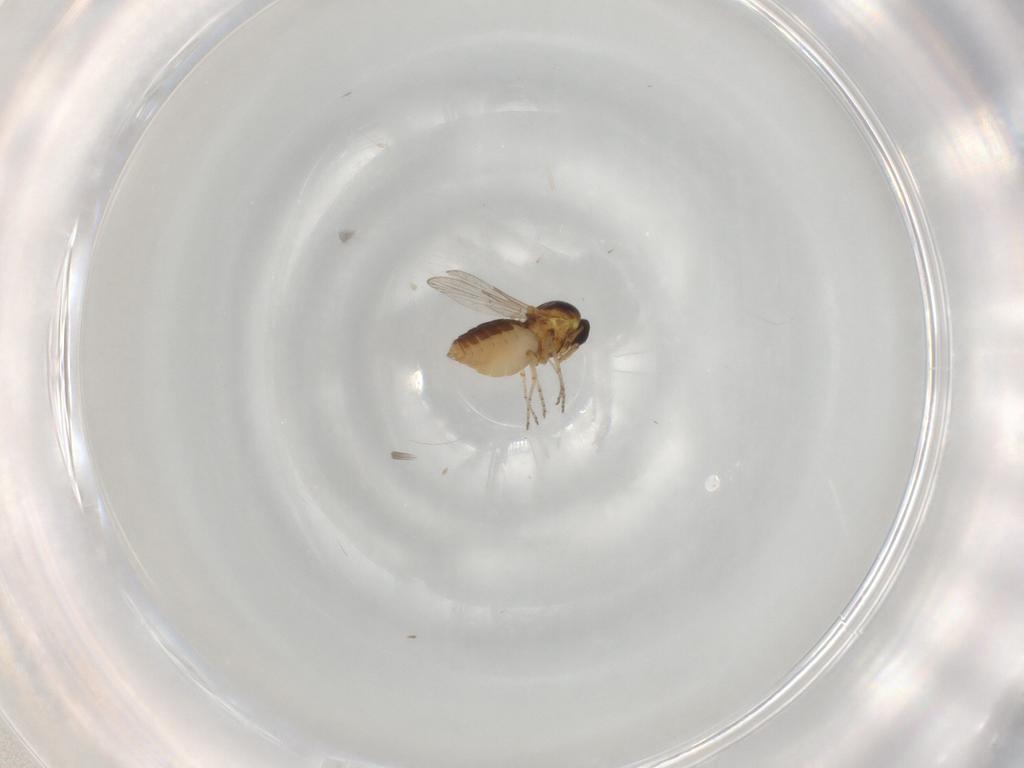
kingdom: Animalia
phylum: Arthropoda
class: Insecta
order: Diptera
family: Ceratopogonidae
